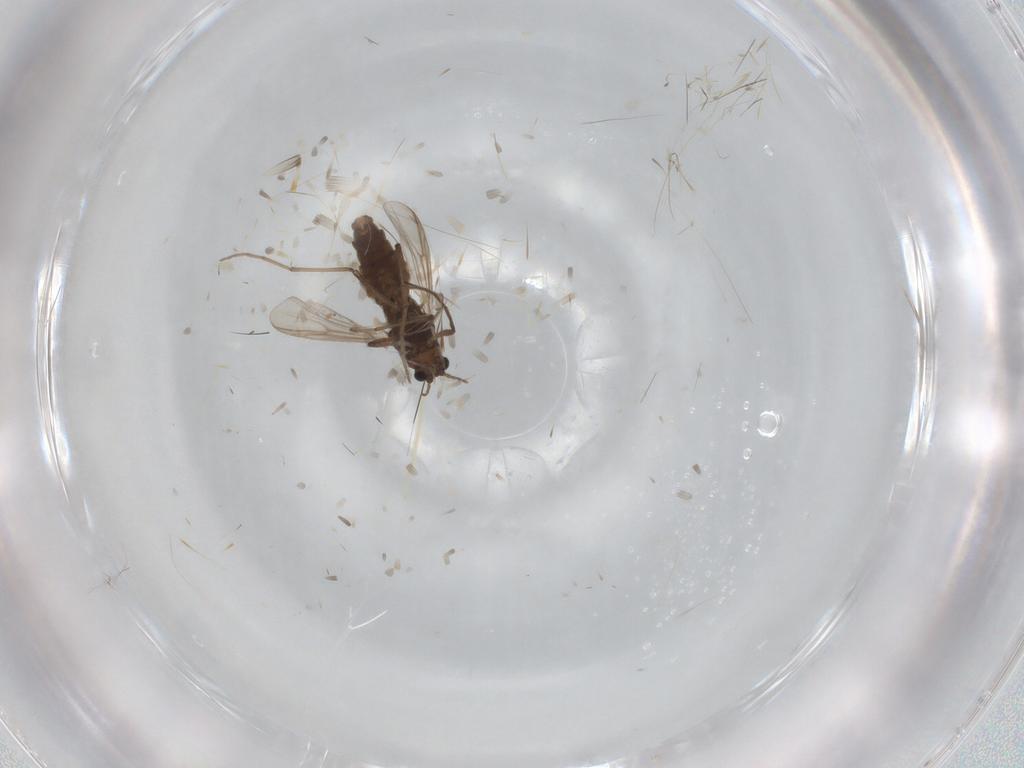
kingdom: Animalia
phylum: Arthropoda
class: Insecta
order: Diptera
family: Chironomidae
